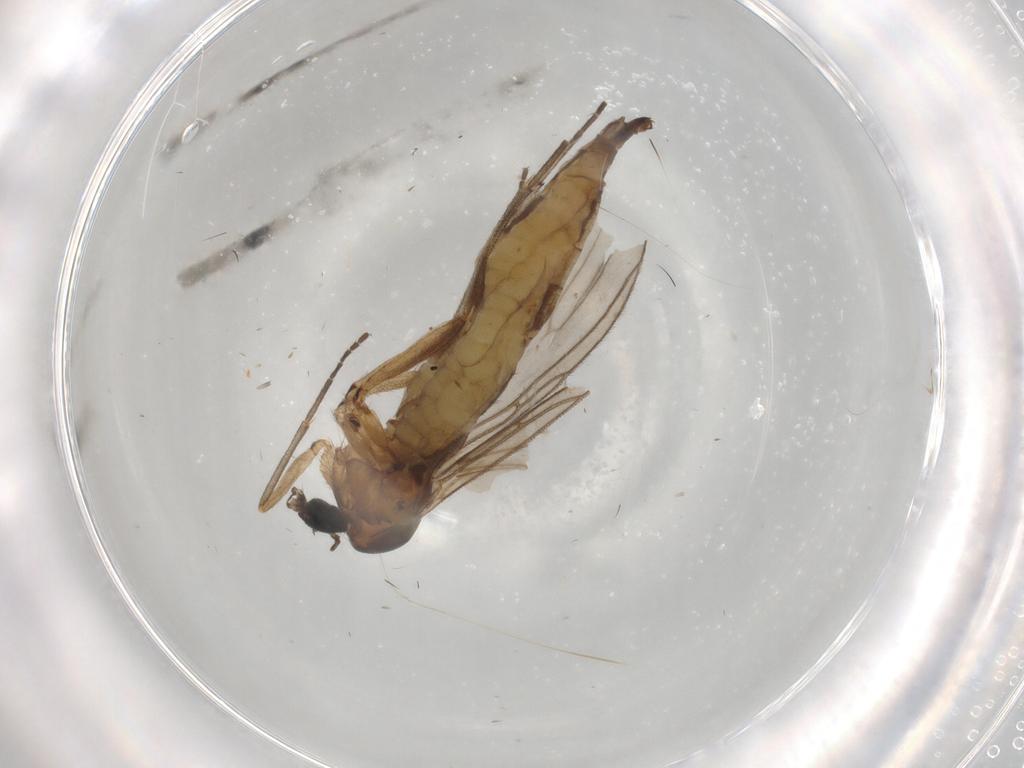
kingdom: Animalia
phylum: Arthropoda
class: Insecta
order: Diptera
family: Sciaridae
